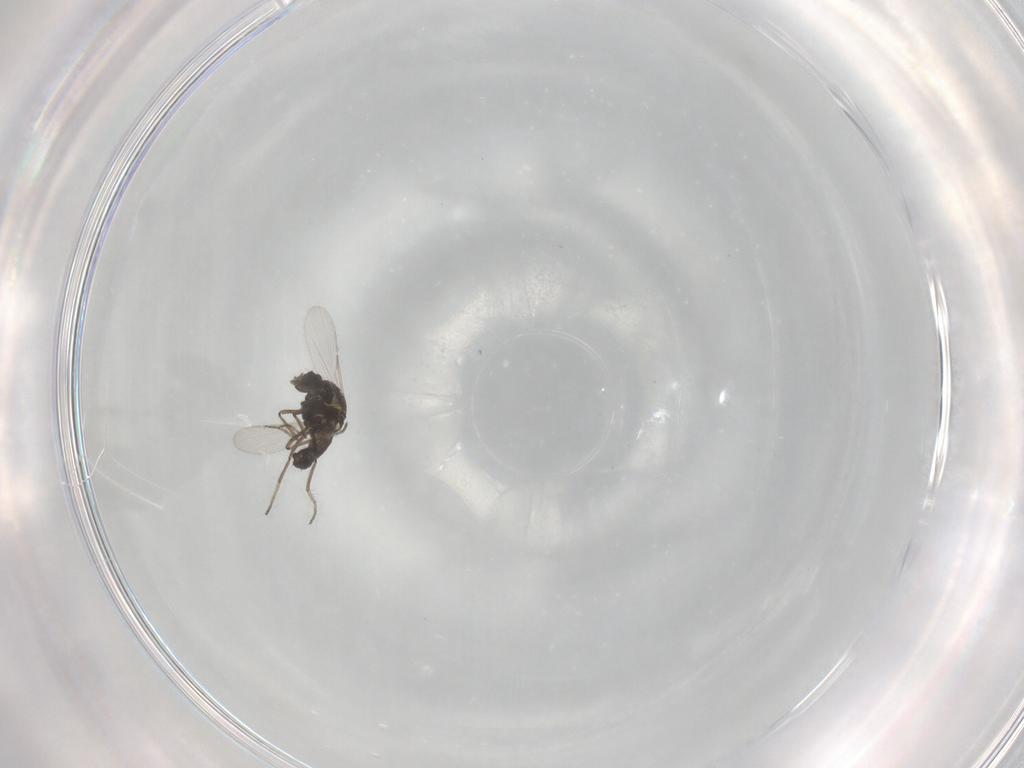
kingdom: Animalia
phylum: Arthropoda
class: Insecta
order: Diptera
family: Ceratopogonidae
